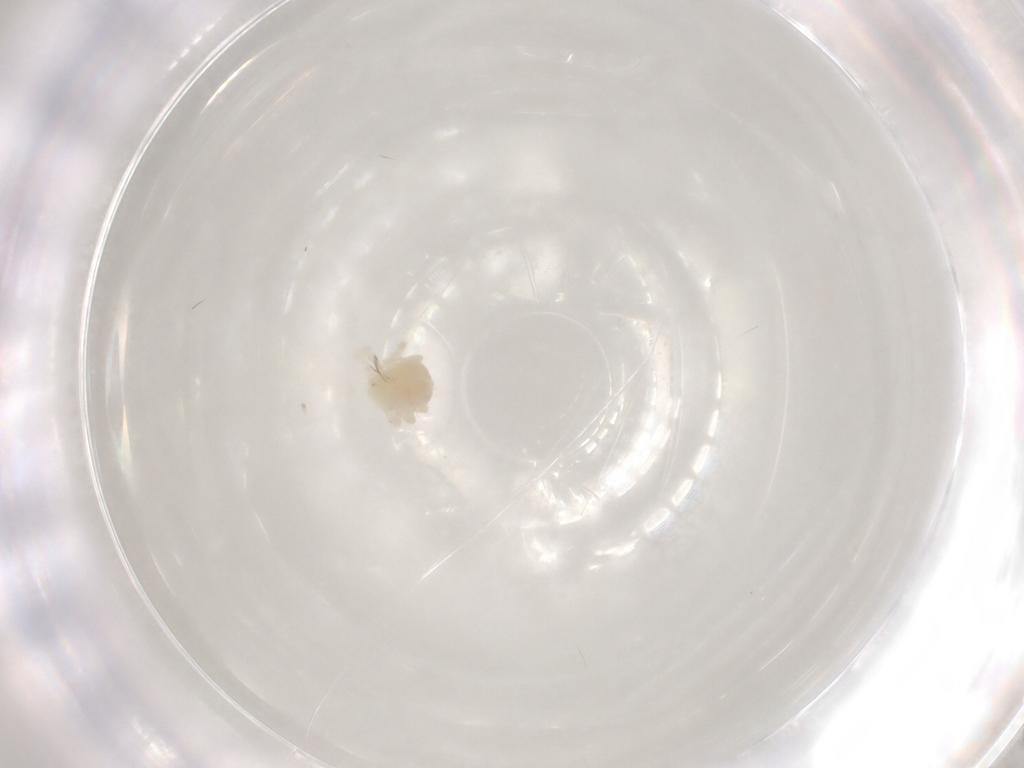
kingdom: Animalia
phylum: Arthropoda
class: Arachnida
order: Trombidiformes
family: Anystidae
